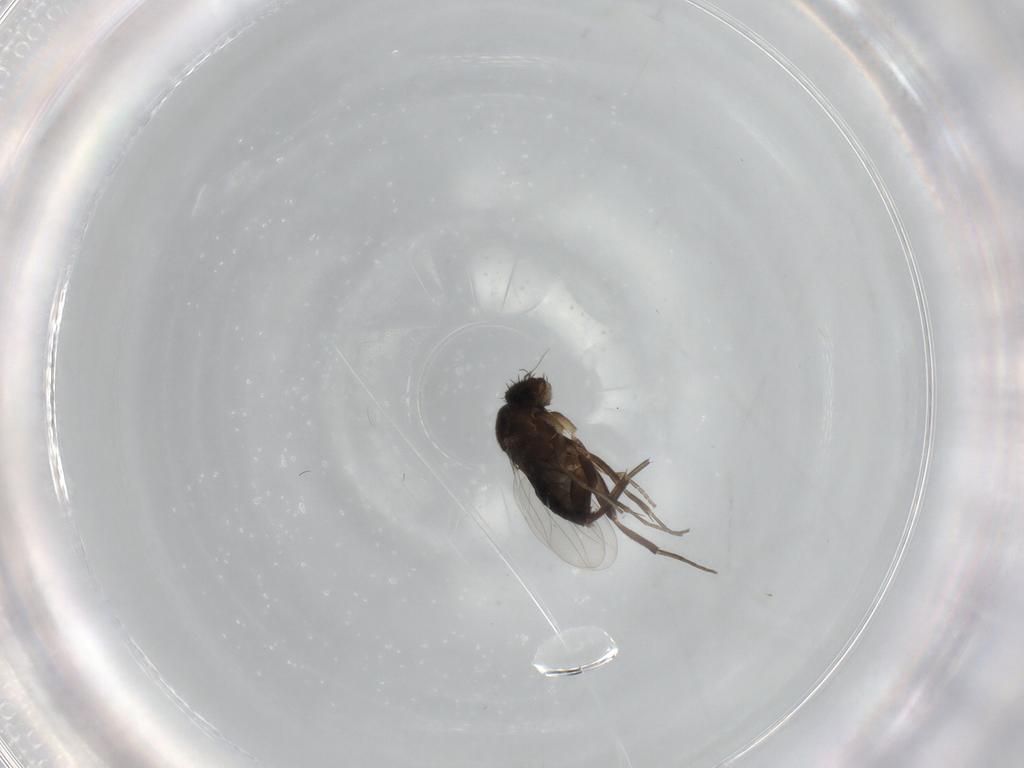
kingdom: Animalia
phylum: Arthropoda
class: Insecta
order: Diptera
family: Phoridae
